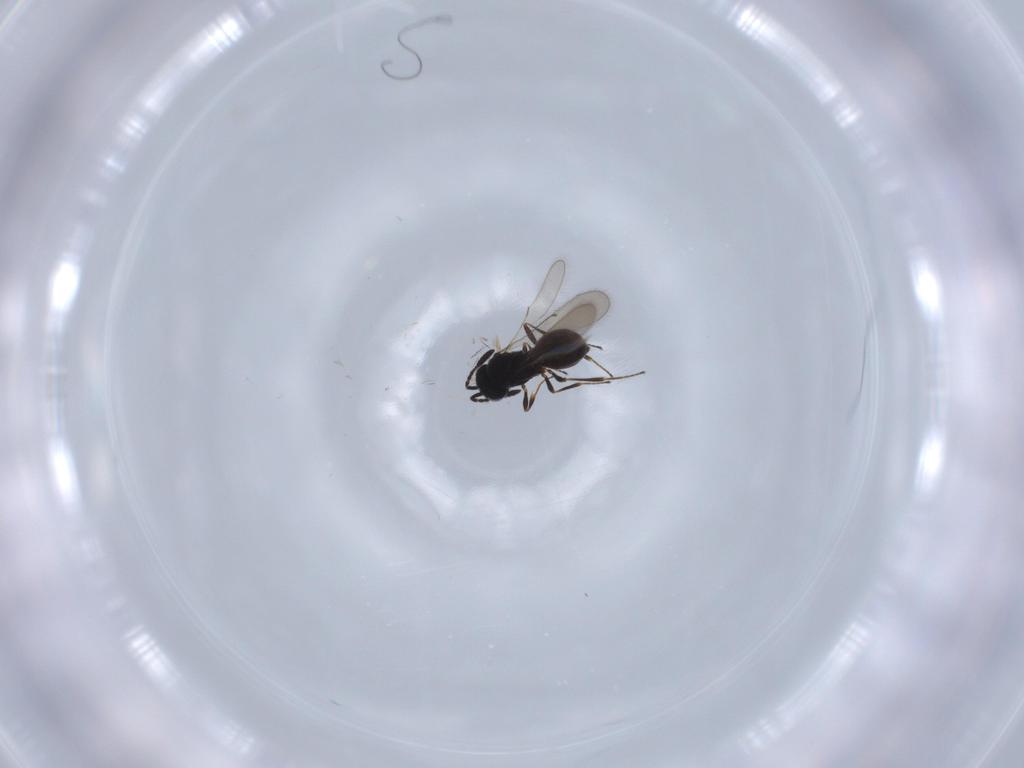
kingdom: Animalia
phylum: Arthropoda
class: Insecta
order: Hymenoptera
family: Scelionidae
